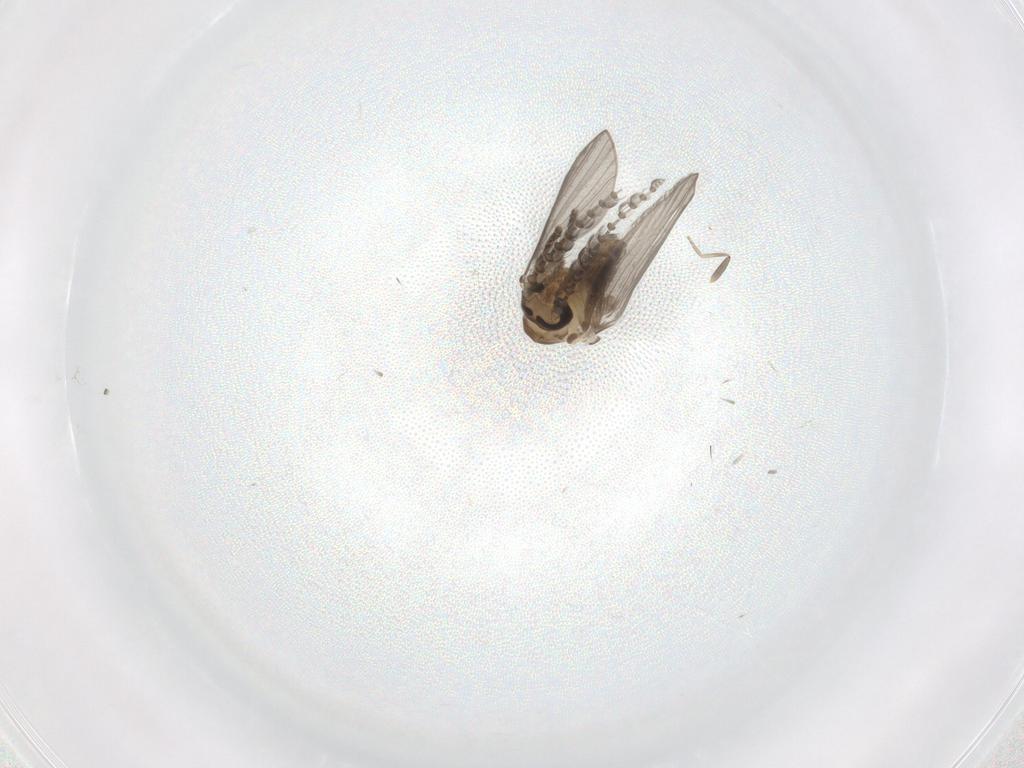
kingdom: Animalia
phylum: Arthropoda
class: Insecta
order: Diptera
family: Psychodidae
